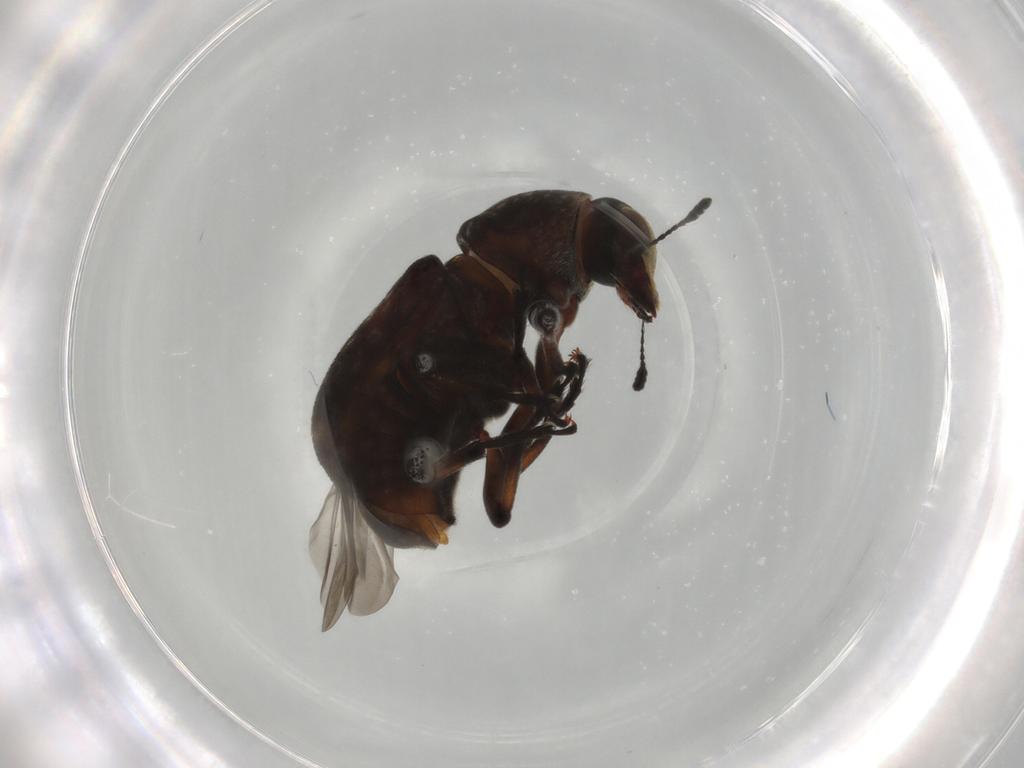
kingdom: Animalia
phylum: Arthropoda
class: Insecta
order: Coleoptera
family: Anthribidae
